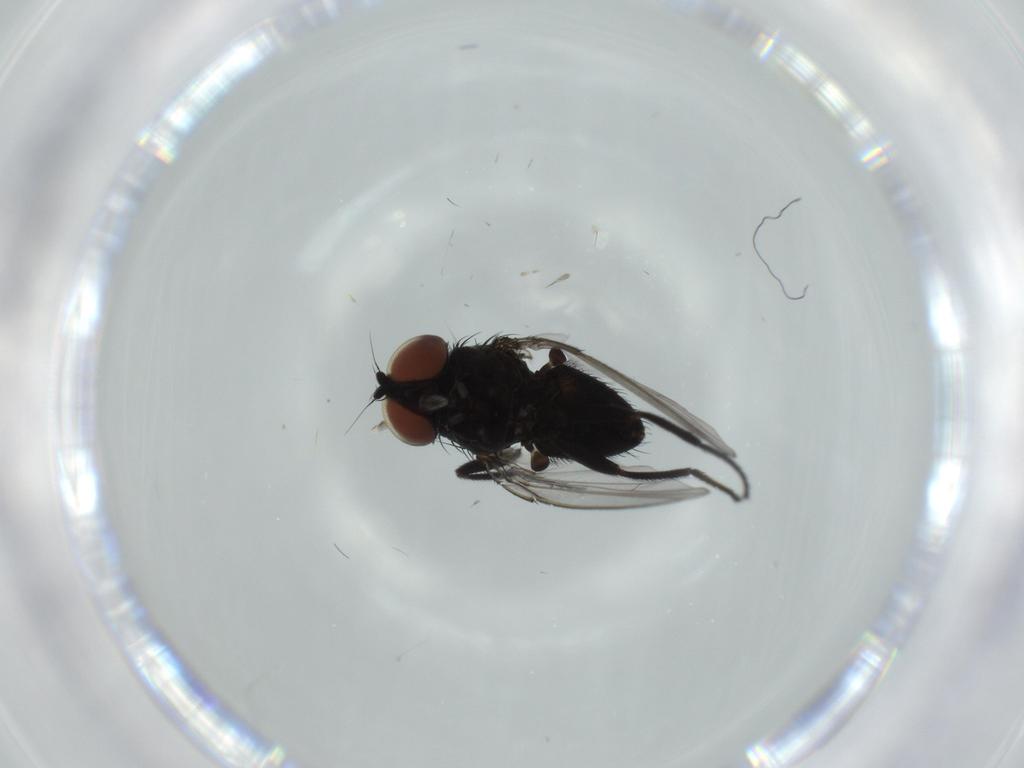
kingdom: Animalia
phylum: Arthropoda
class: Insecta
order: Diptera
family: Milichiidae
